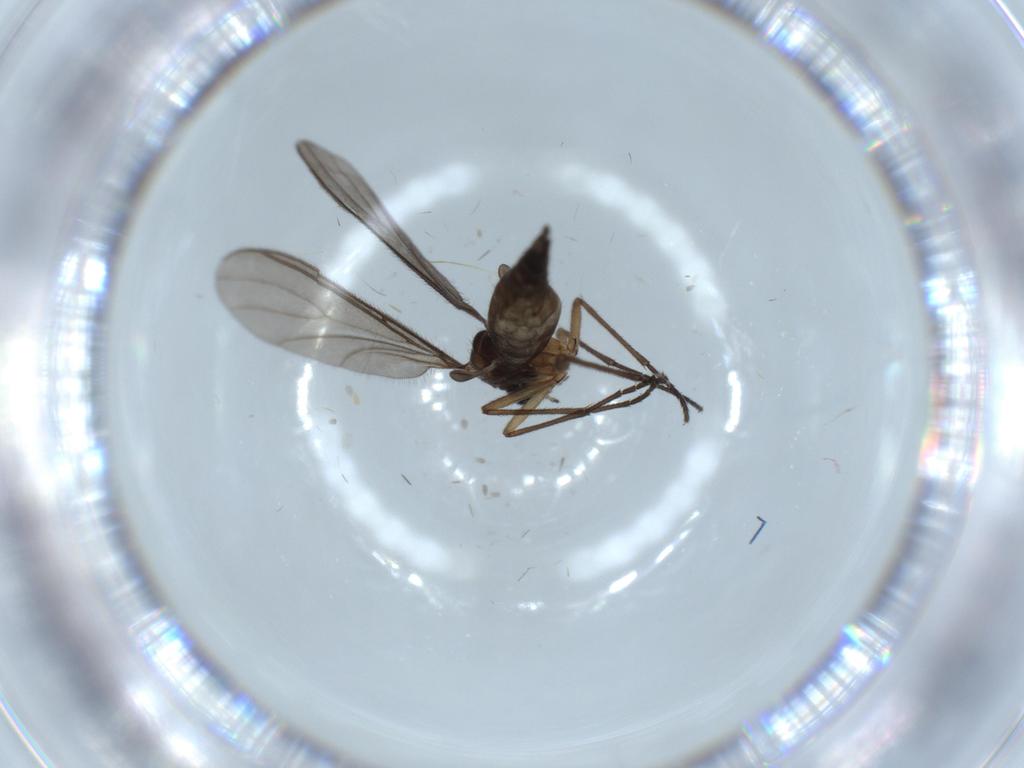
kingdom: Animalia
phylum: Arthropoda
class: Insecta
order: Diptera
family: Sciaridae
